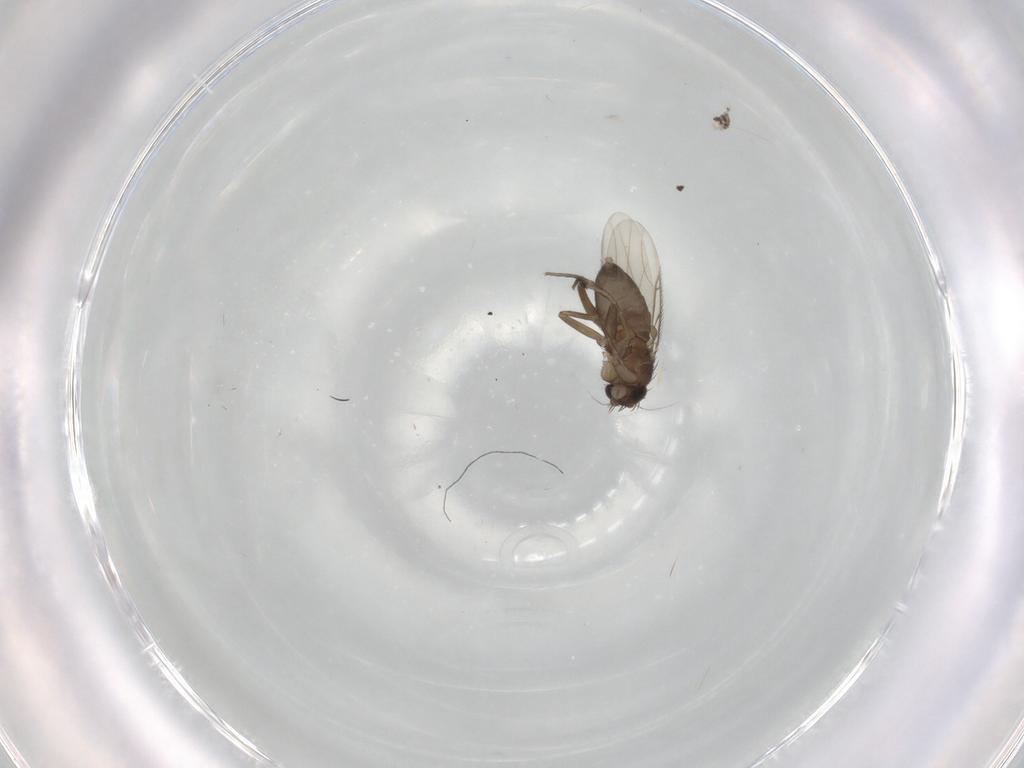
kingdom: Animalia
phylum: Arthropoda
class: Insecta
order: Diptera
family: Phoridae
